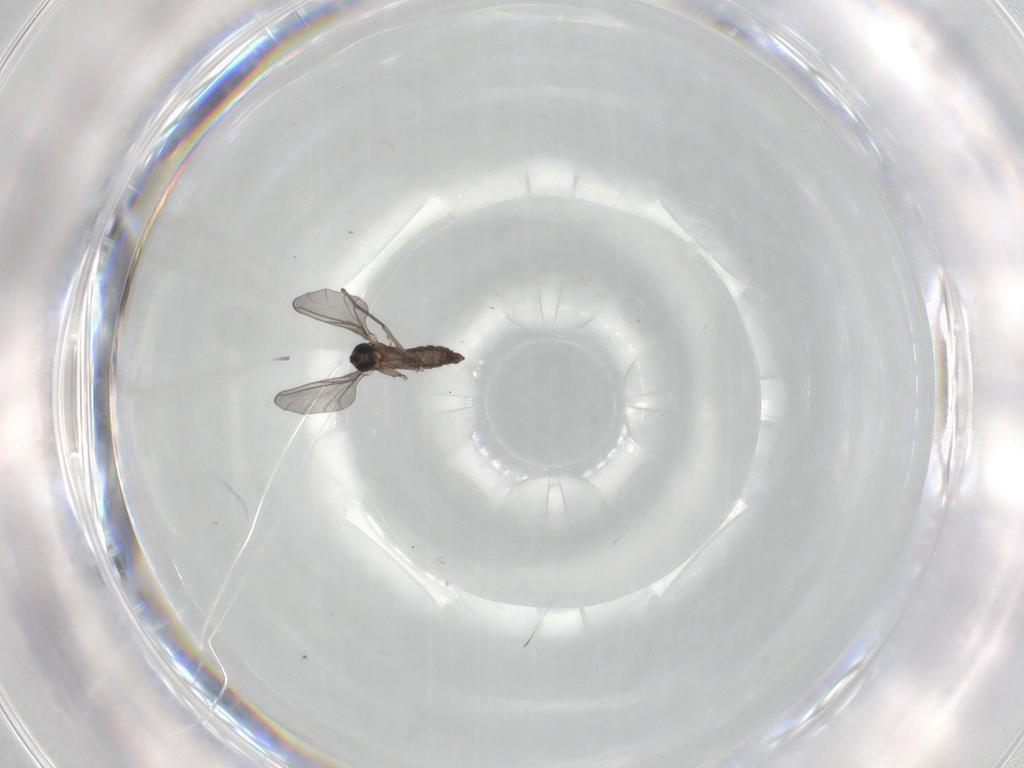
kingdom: Animalia
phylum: Arthropoda
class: Insecta
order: Diptera
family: Sciaridae
